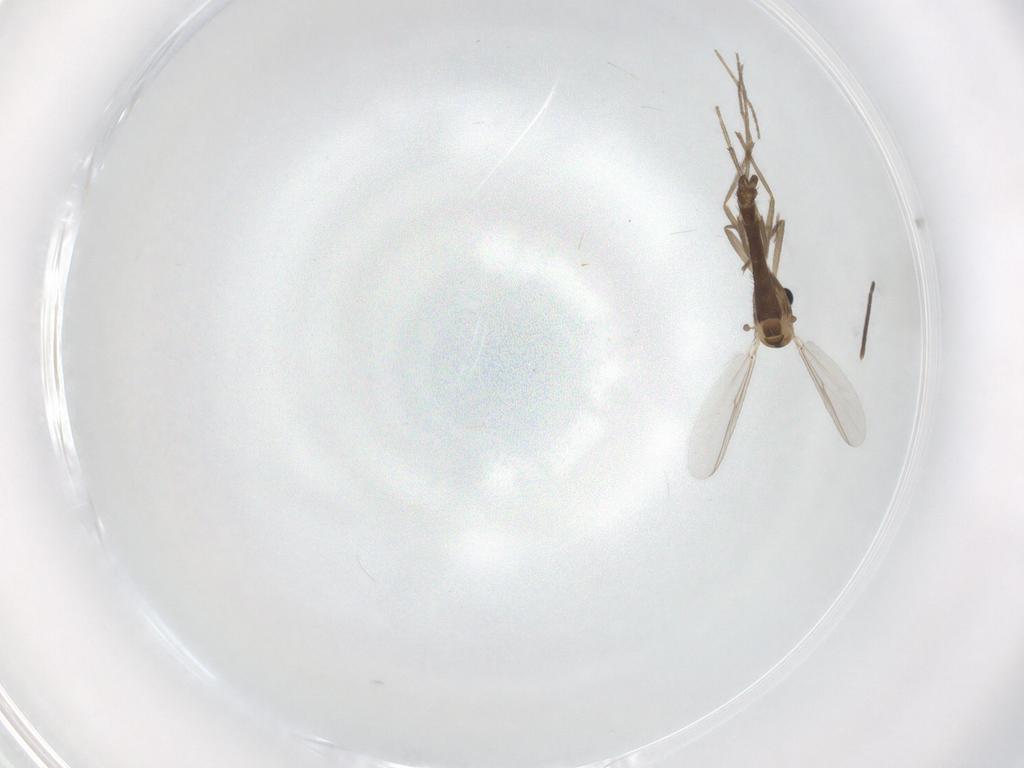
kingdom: Animalia
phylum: Arthropoda
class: Insecta
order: Diptera
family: Chironomidae
